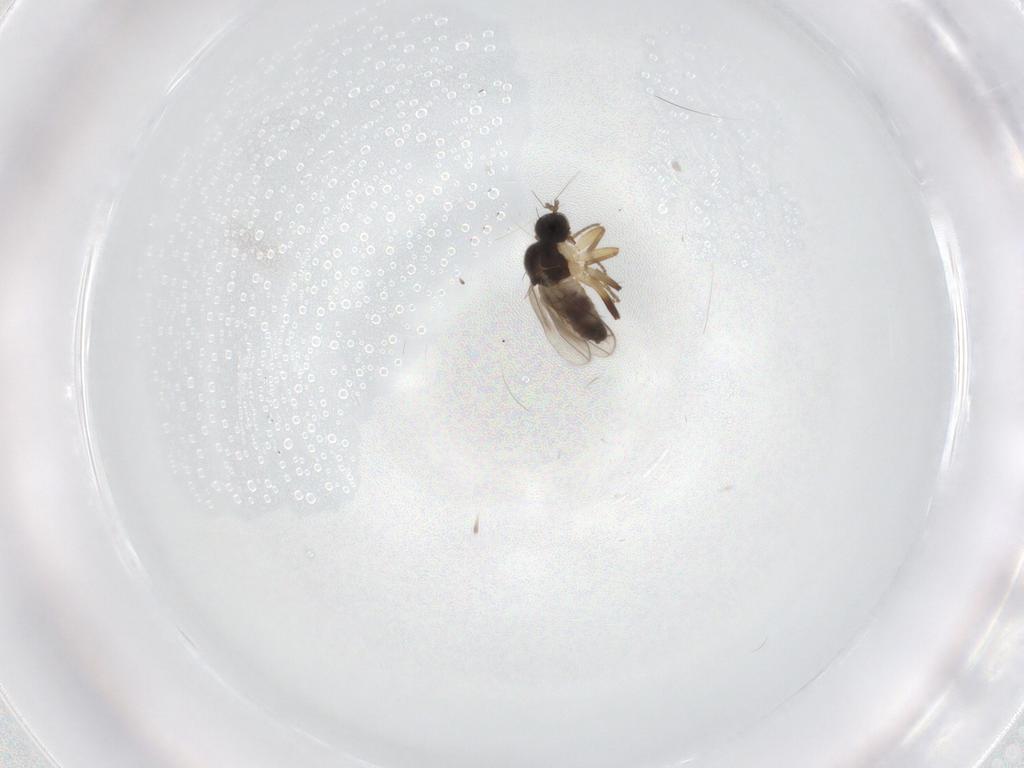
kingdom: Animalia
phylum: Arthropoda
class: Insecta
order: Diptera
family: Hybotidae
